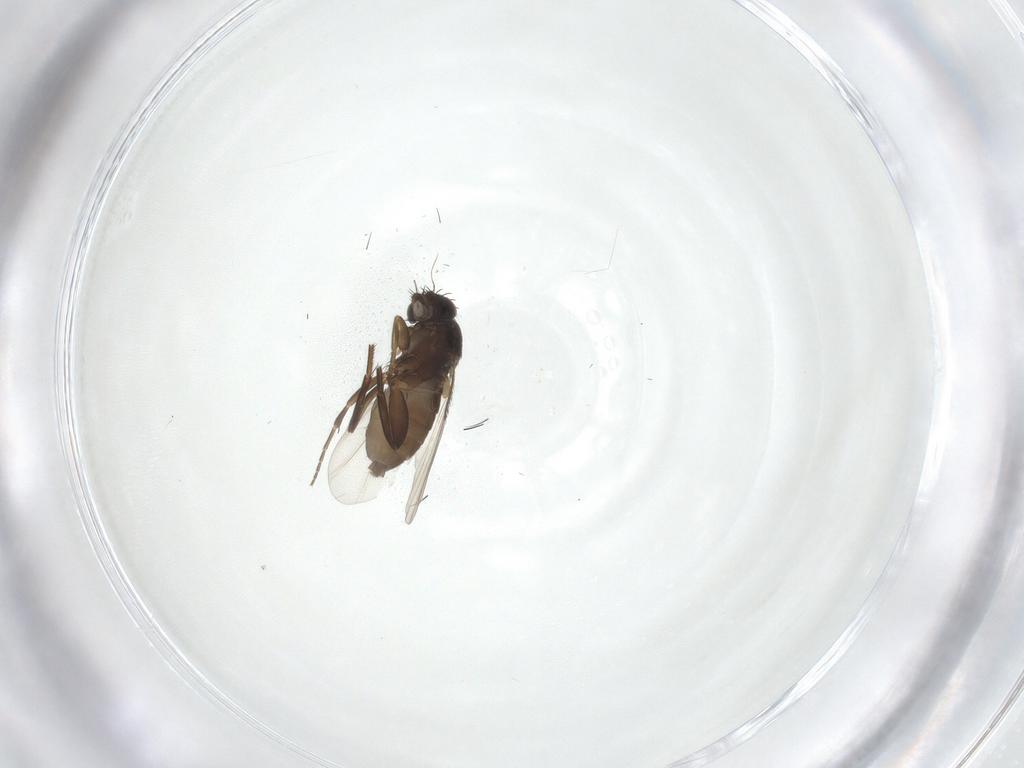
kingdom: Animalia
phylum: Arthropoda
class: Insecta
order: Diptera
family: Phoridae
